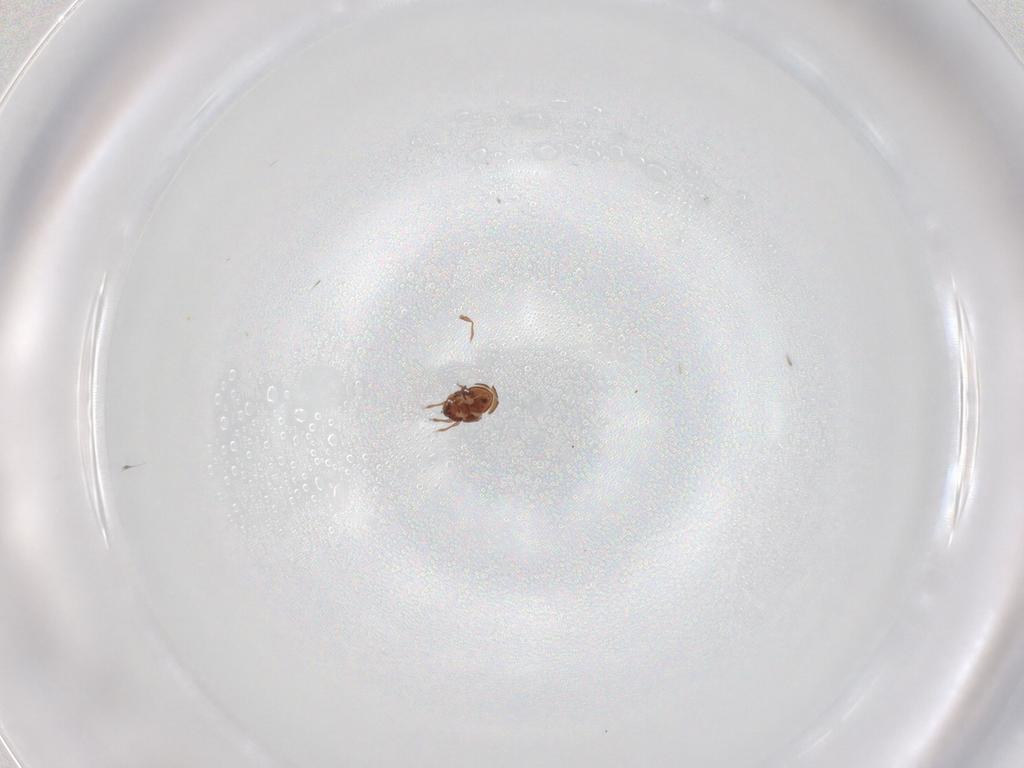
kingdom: Animalia
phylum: Arthropoda
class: Arachnida
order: Sarcoptiformes
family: Scheloribatidae
